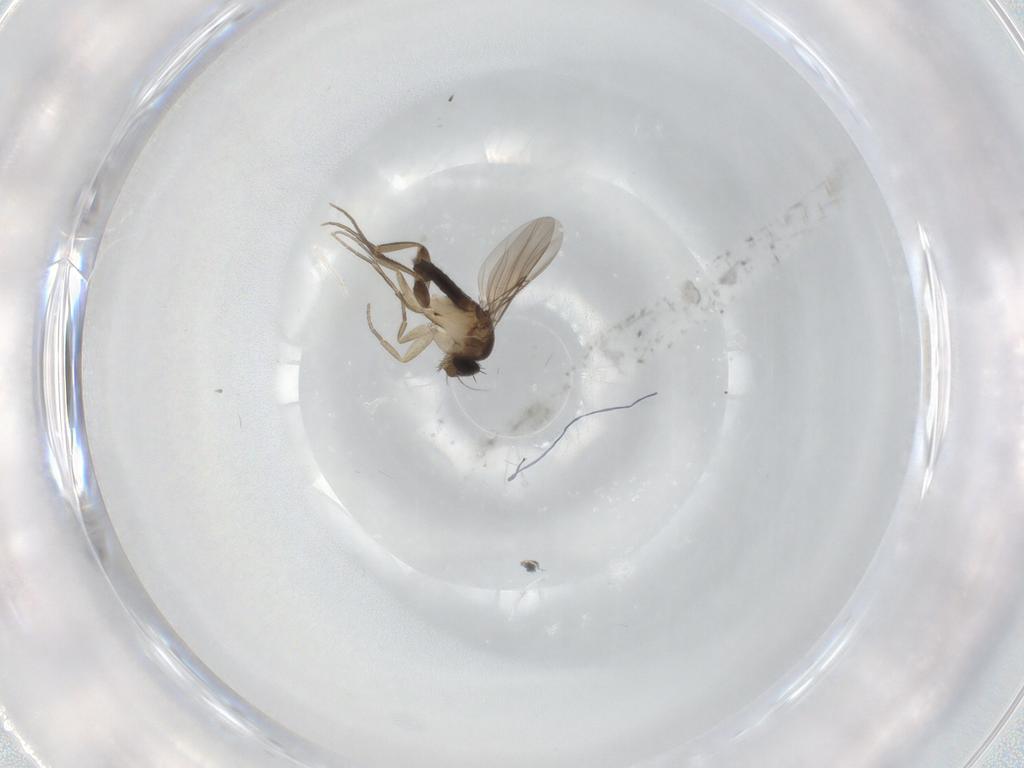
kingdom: Animalia
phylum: Arthropoda
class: Insecta
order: Diptera
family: Phoridae
